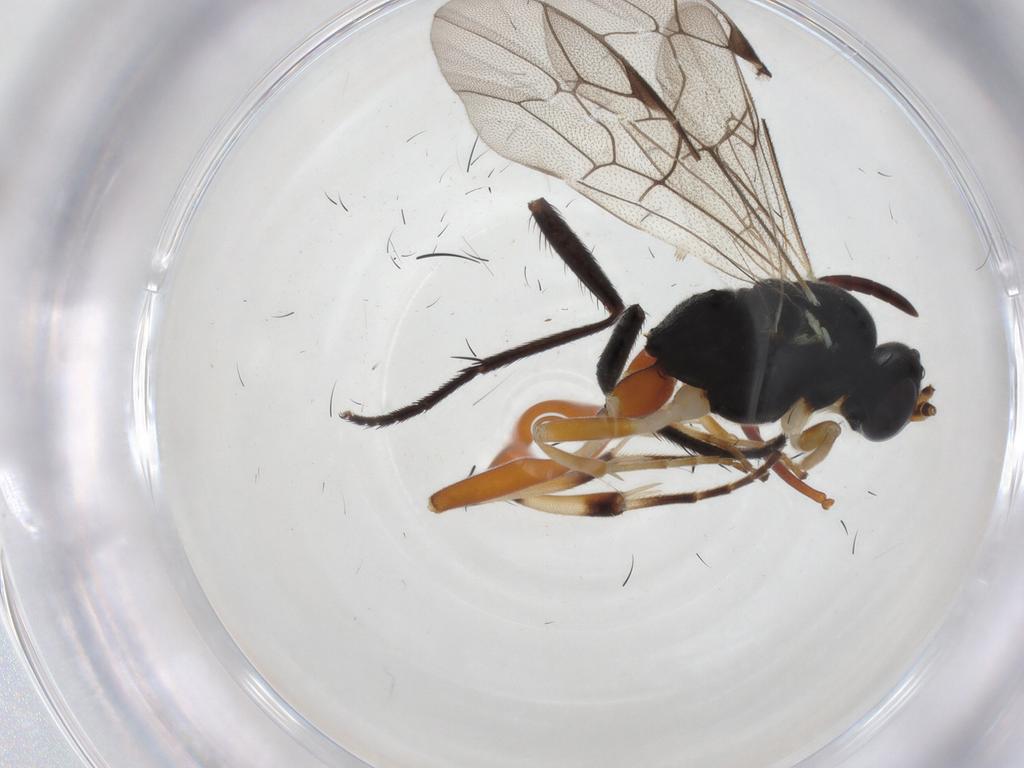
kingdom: Animalia
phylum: Arthropoda
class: Insecta
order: Hymenoptera
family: Ichneumonidae
